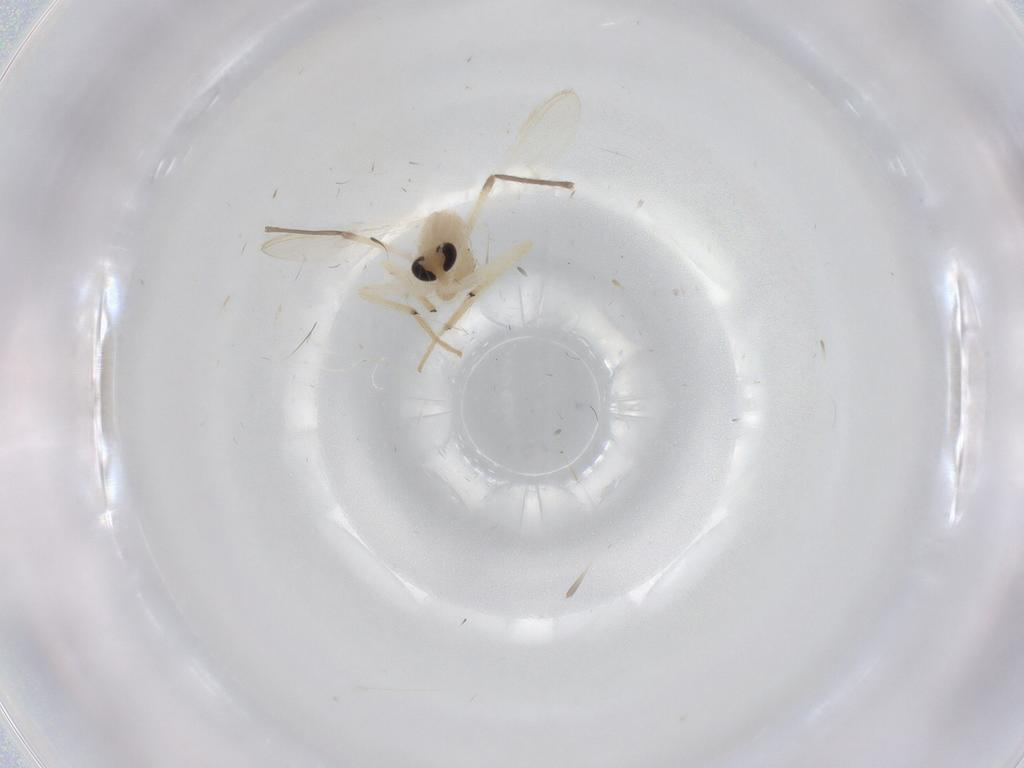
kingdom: Animalia
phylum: Arthropoda
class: Insecta
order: Diptera
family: Chironomidae
